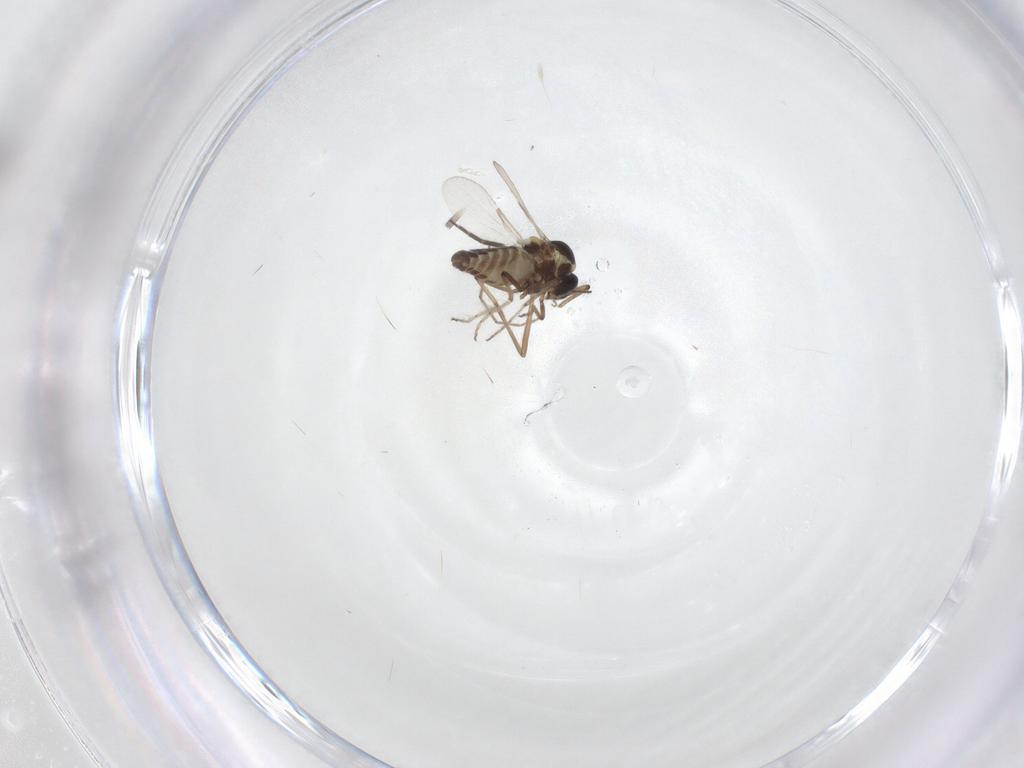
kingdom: Animalia
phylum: Arthropoda
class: Insecta
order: Diptera
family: Ceratopogonidae
